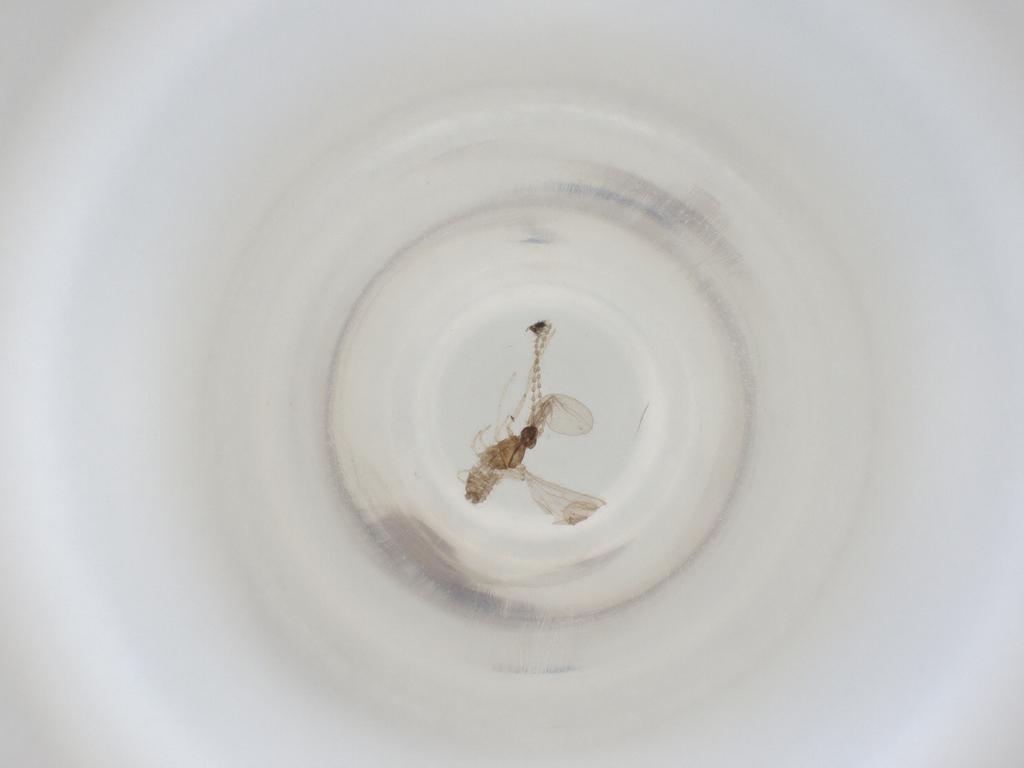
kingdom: Animalia
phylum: Arthropoda
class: Insecta
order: Diptera
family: Cecidomyiidae
